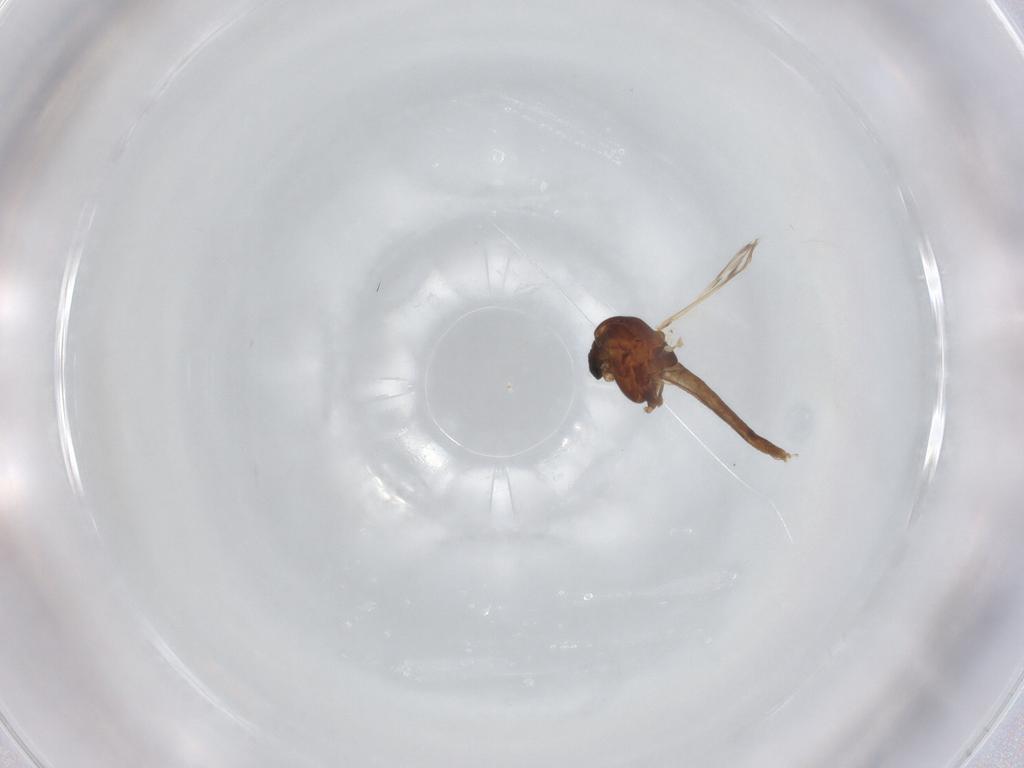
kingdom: Animalia
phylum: Arthropoda
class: Insecta
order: Diptera
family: Chironomidae
